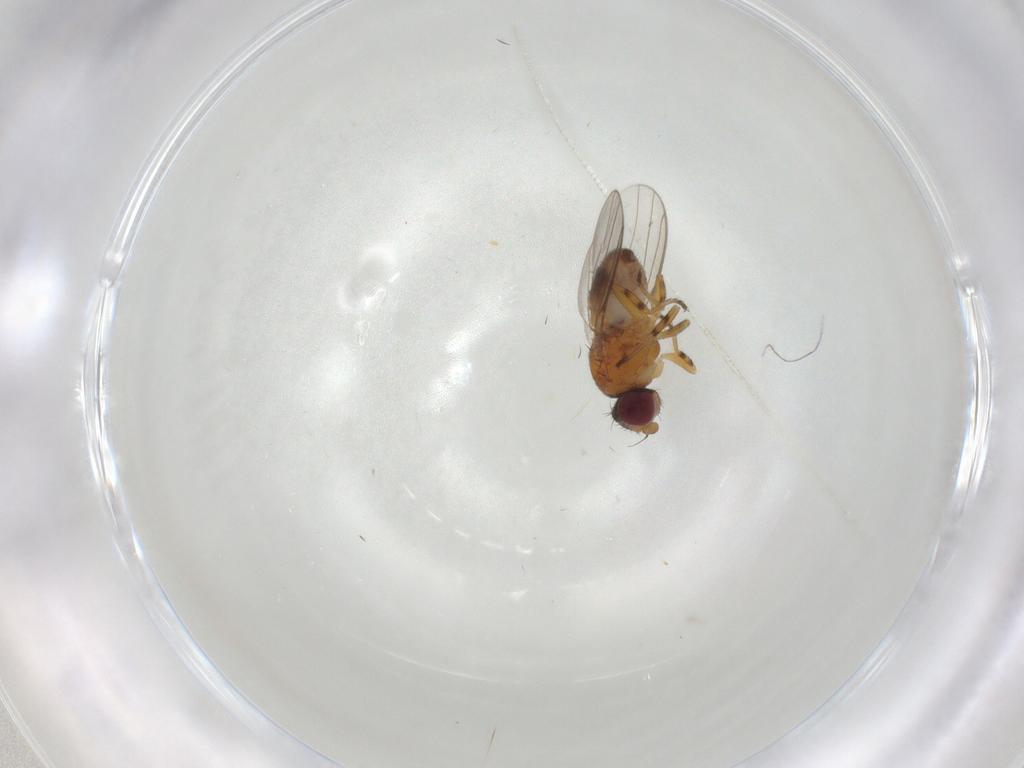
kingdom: Animalia
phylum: Arthropoda
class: Insecta
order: Diptera
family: Chloropidae
